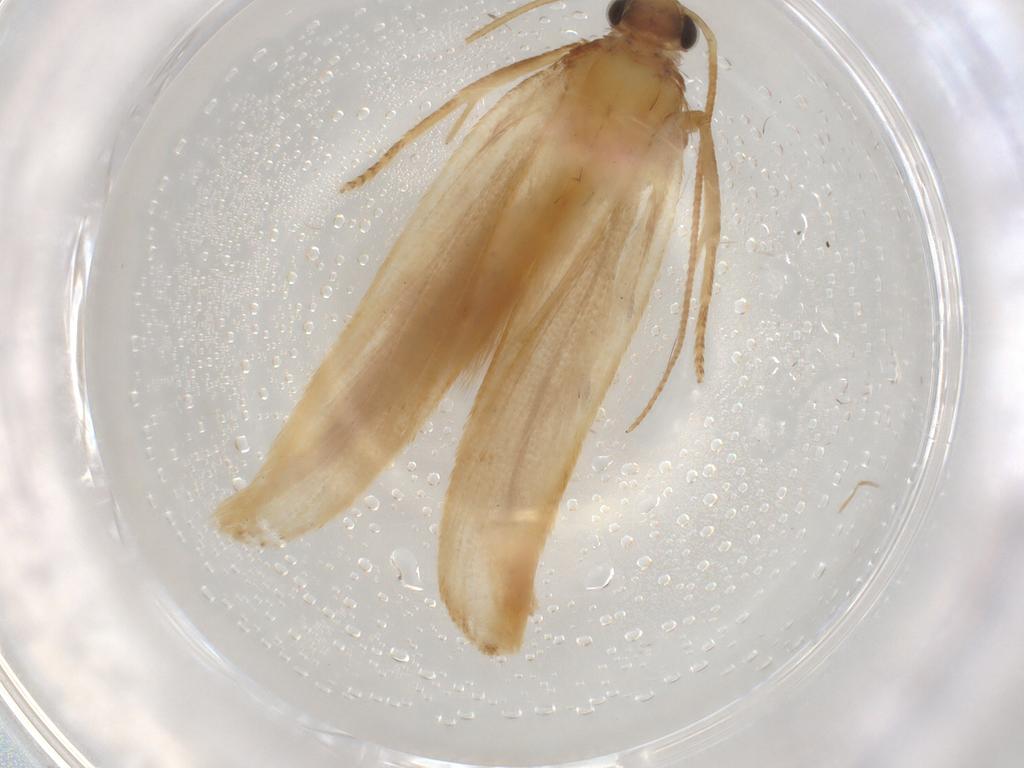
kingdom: Animalia
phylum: Arthropoda
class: Insecta
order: Lepidoptera
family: Gelechiidae
